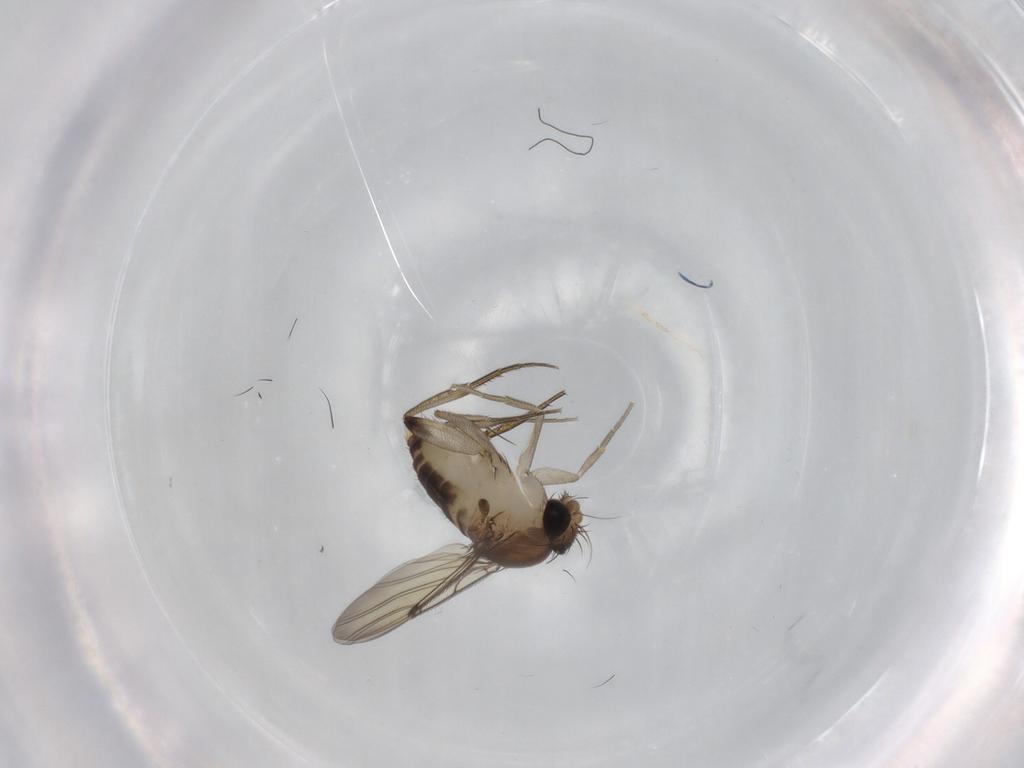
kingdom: Animalia
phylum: Arthropoda
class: Insecta
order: Diptera
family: Phoridae
